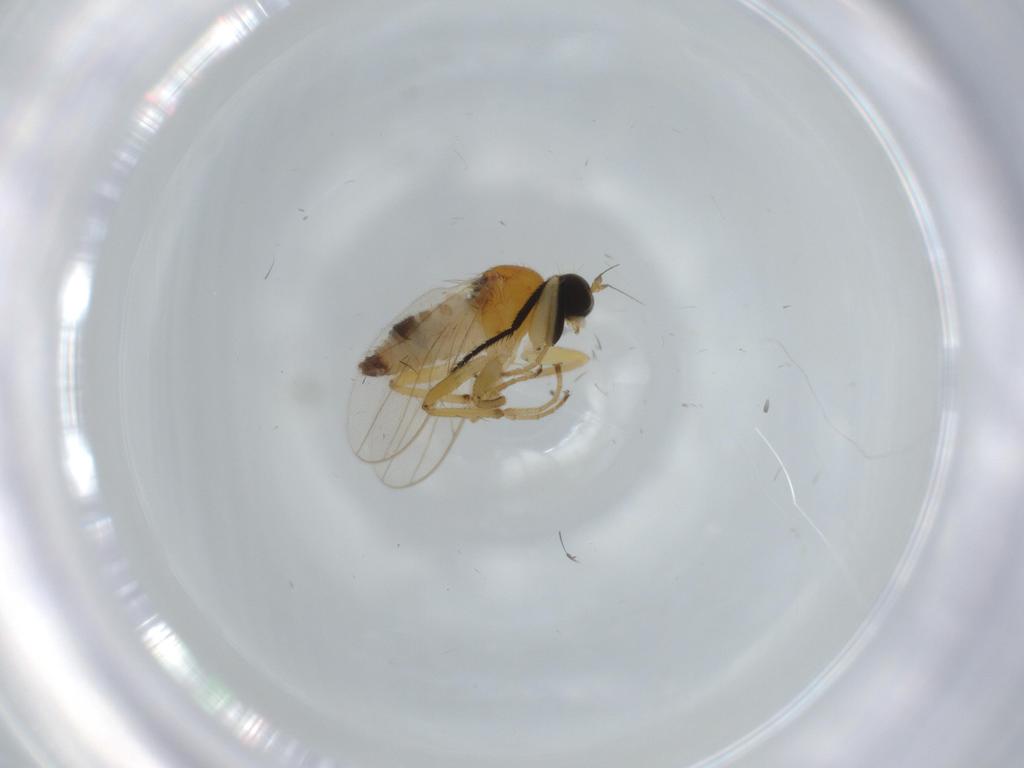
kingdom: Animalia
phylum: Arthropoda
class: Insecta
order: Diptera
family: Hybotidae
